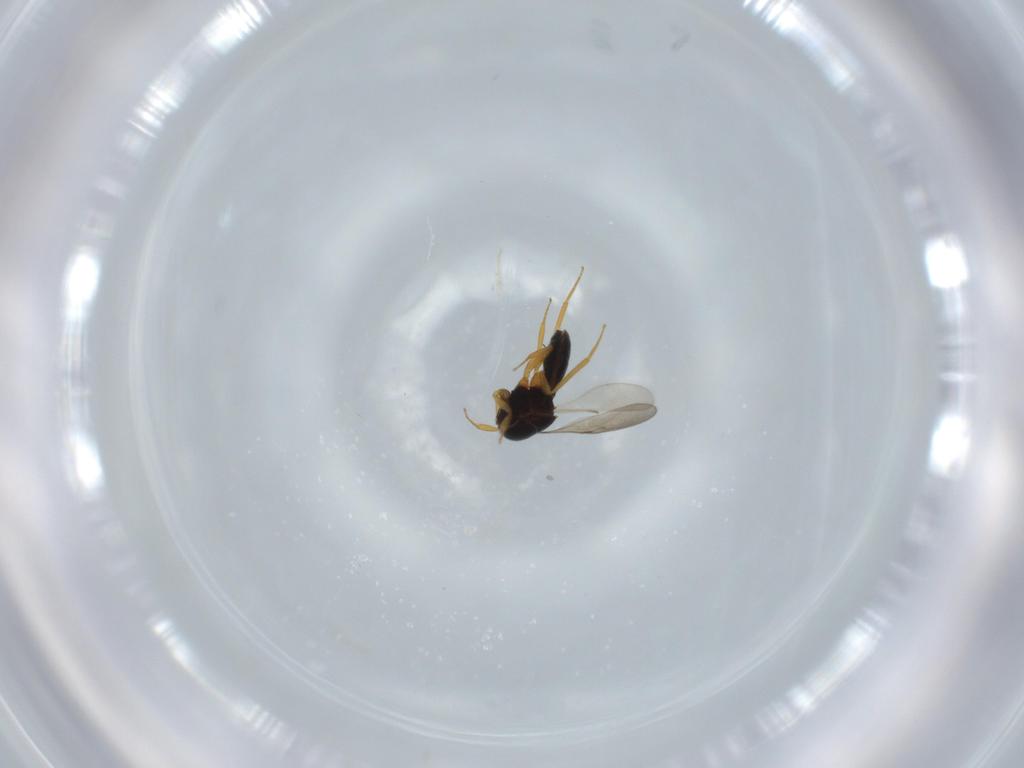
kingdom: Animalia
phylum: Arthropoda
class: Insecta
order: Hymenoptera
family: Scelionidae
